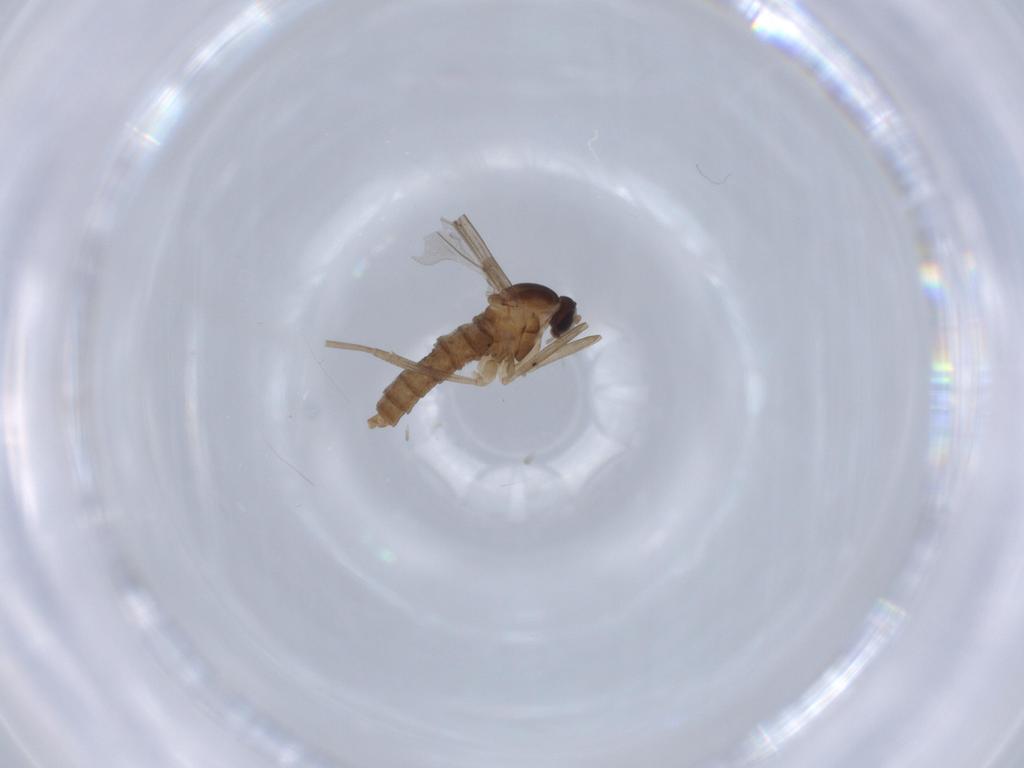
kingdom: Animalia
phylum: Arthropoda
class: Insecta
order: Diptera
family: Cecidomyiidae
